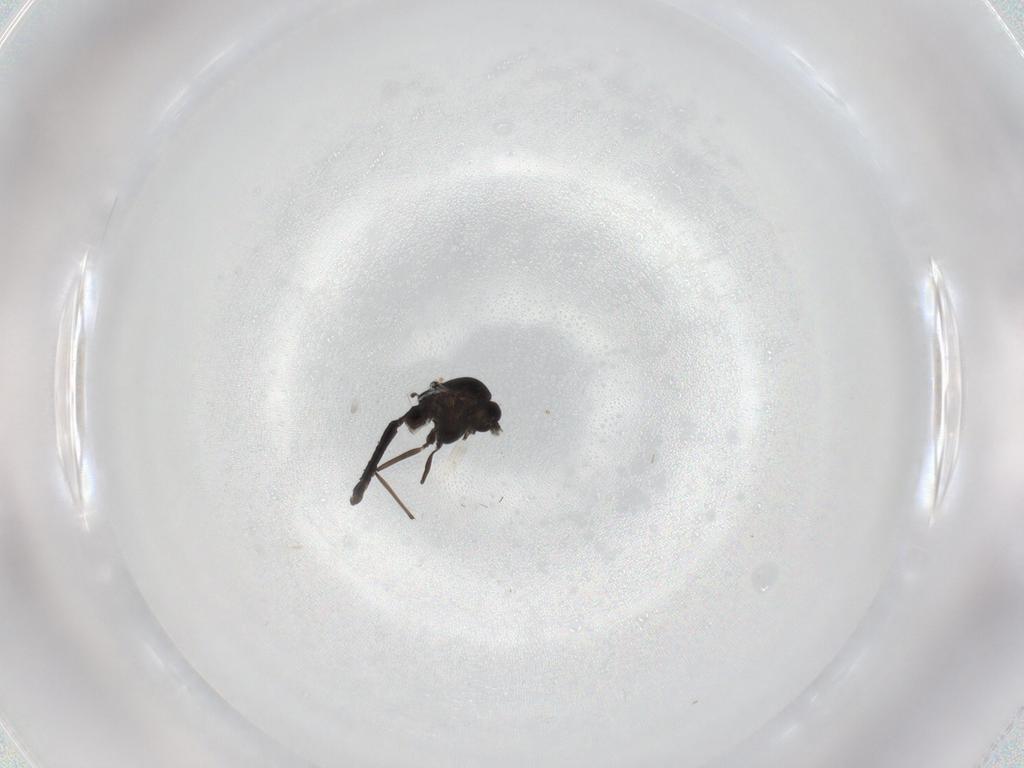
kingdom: Animalia
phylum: Arthropoda
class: Insecta
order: Diptera
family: Chironomidae
